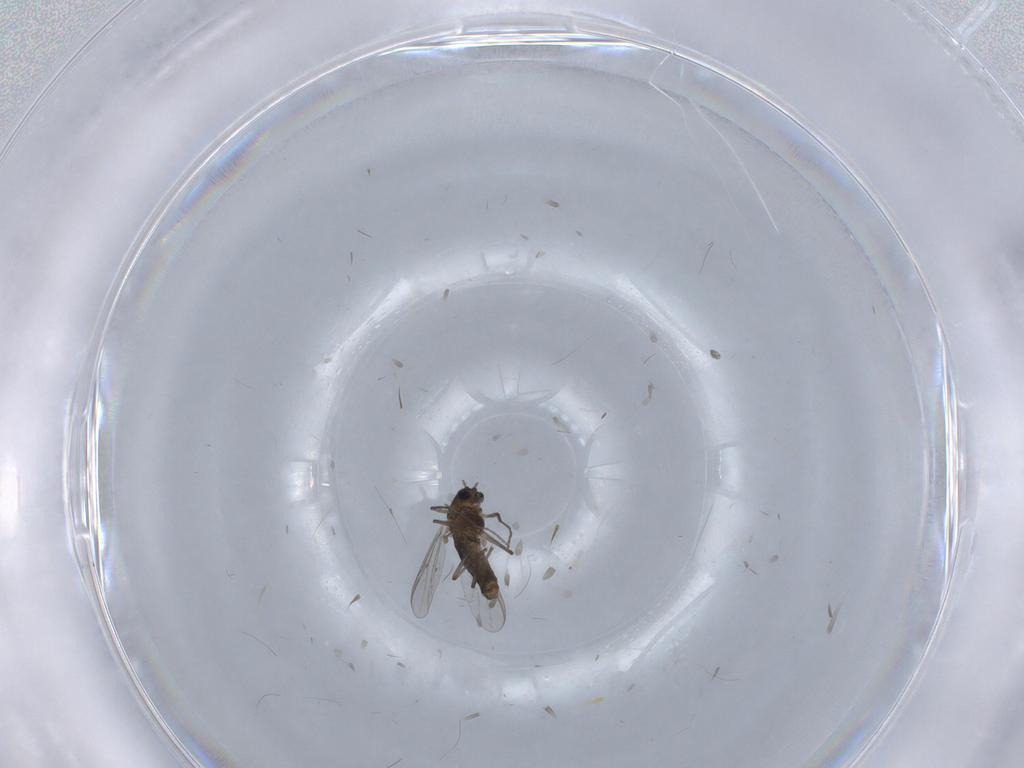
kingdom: Animalia
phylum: Arthropoda
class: Insecta
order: Diptera
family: Chironomidae
